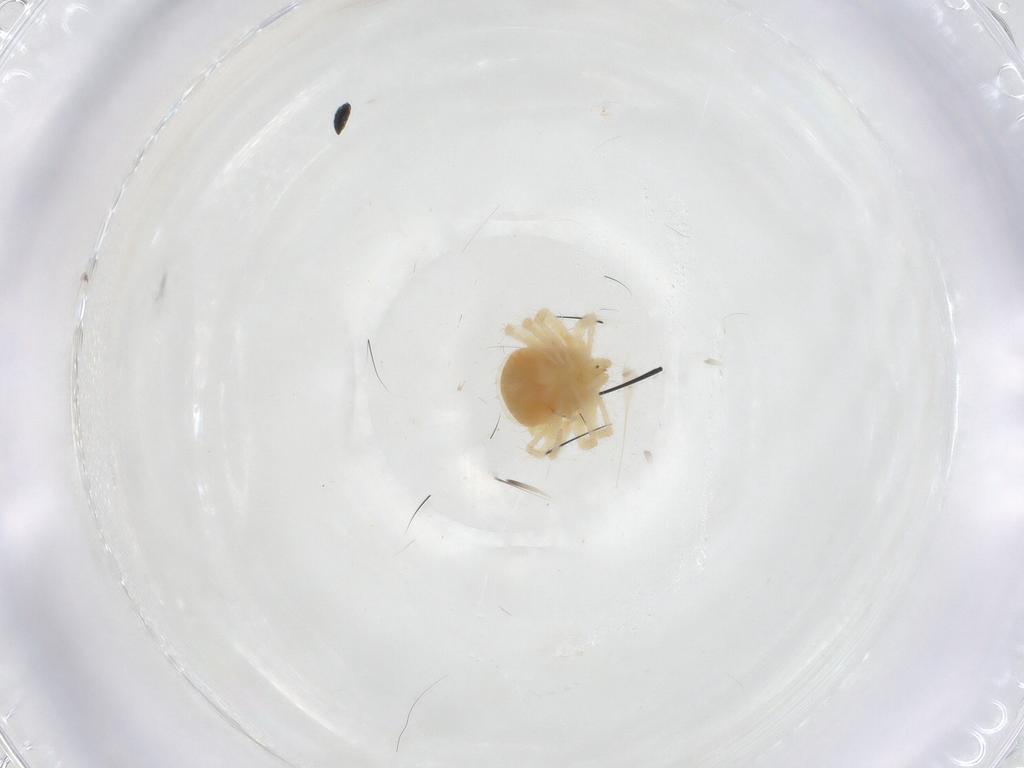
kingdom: Animalia
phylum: Arthropoda
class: Arachnida
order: Trombidiformes
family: Anystidae
